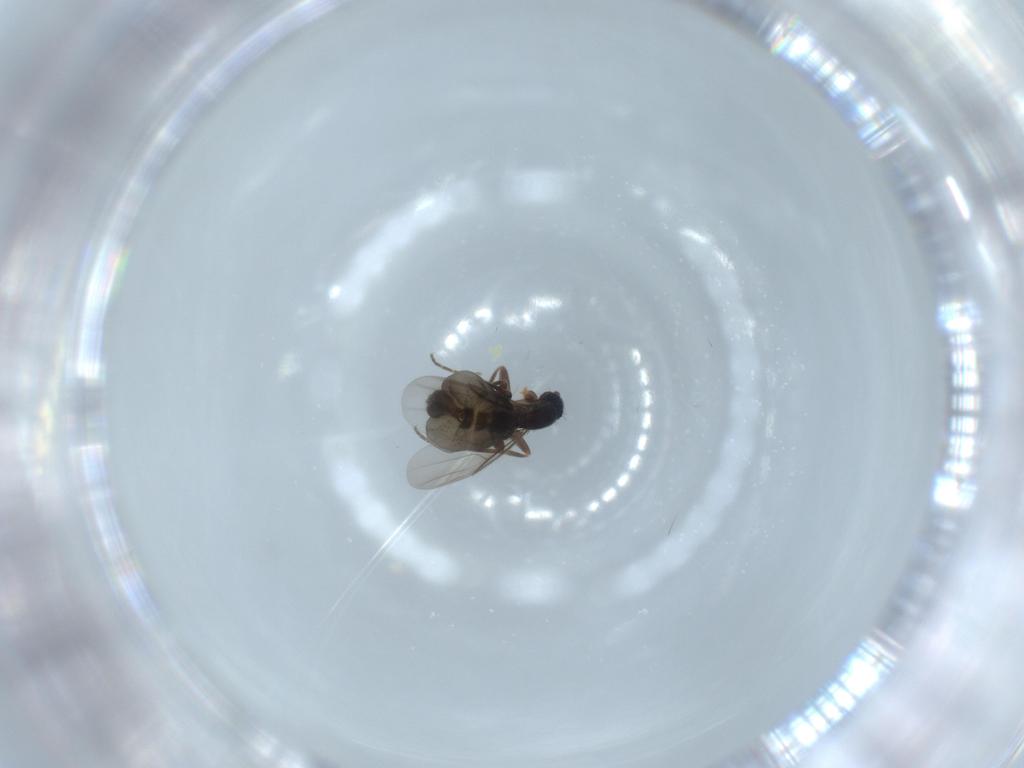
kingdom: Animalia
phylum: Arthropoda
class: Insecta
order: Diptera
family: Phoridae
